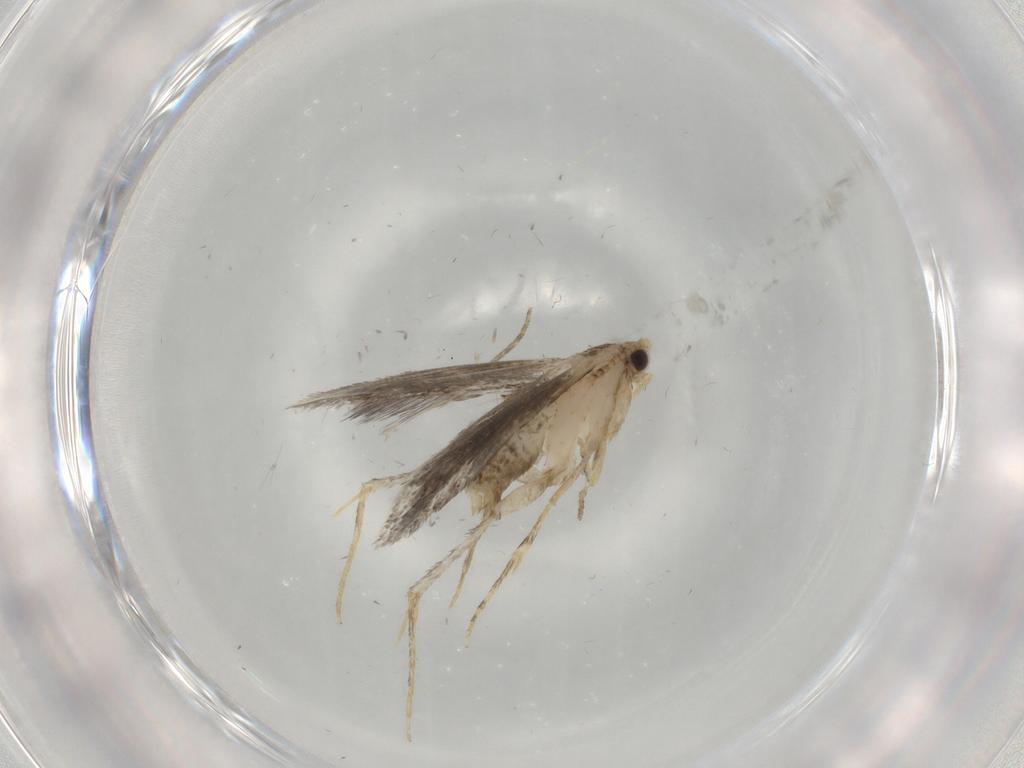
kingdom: Animalia
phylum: Arthropoda
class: Insecta
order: Lepidoptera
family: Tineidae
